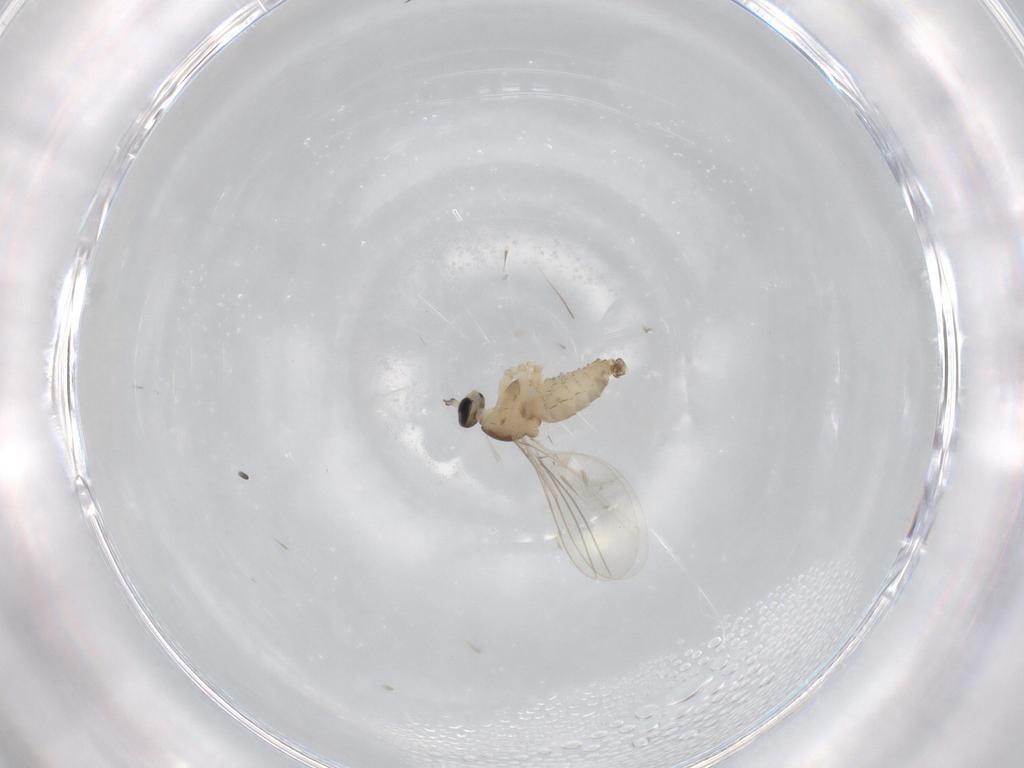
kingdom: Animalia
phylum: Arthropoda
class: Insecta
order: Diptera
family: Cecidomyiidae
